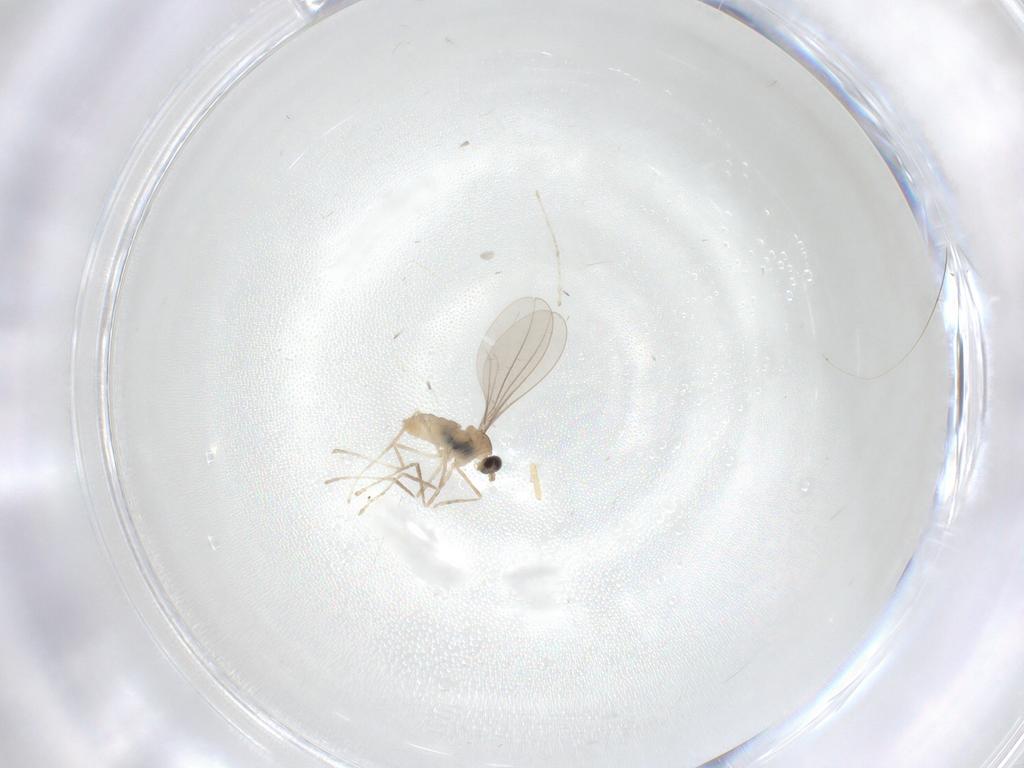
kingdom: Animalia
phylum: Arthropoda
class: Insecta
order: Diptera
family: Cecidomyiidae
